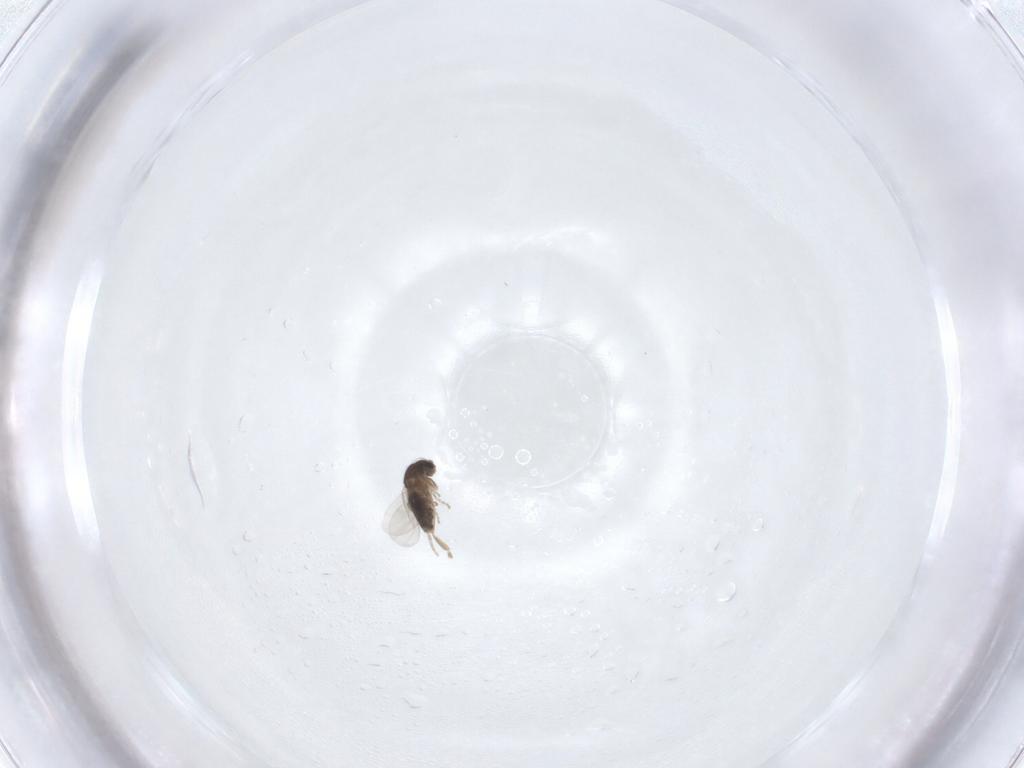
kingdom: Animalia
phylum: Arthropoda
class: Insecta
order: Diptera
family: Phoridae
